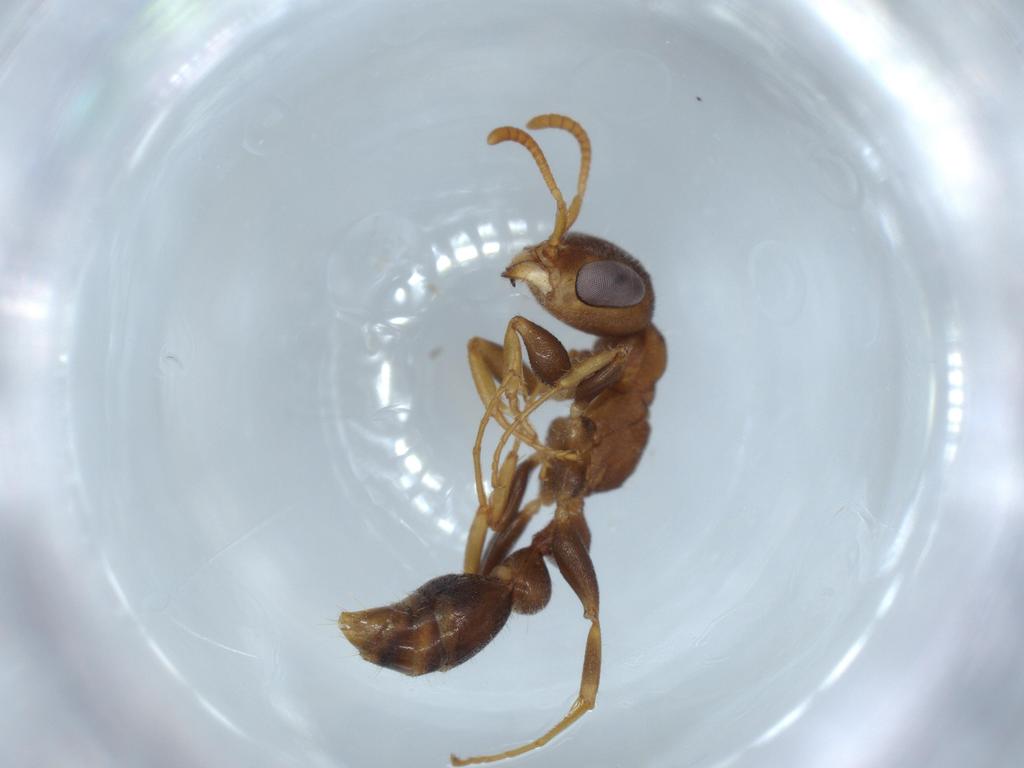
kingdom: Animalia
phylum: Arthropoda
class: Insecta
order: Hymenoptera
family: Formicidae
